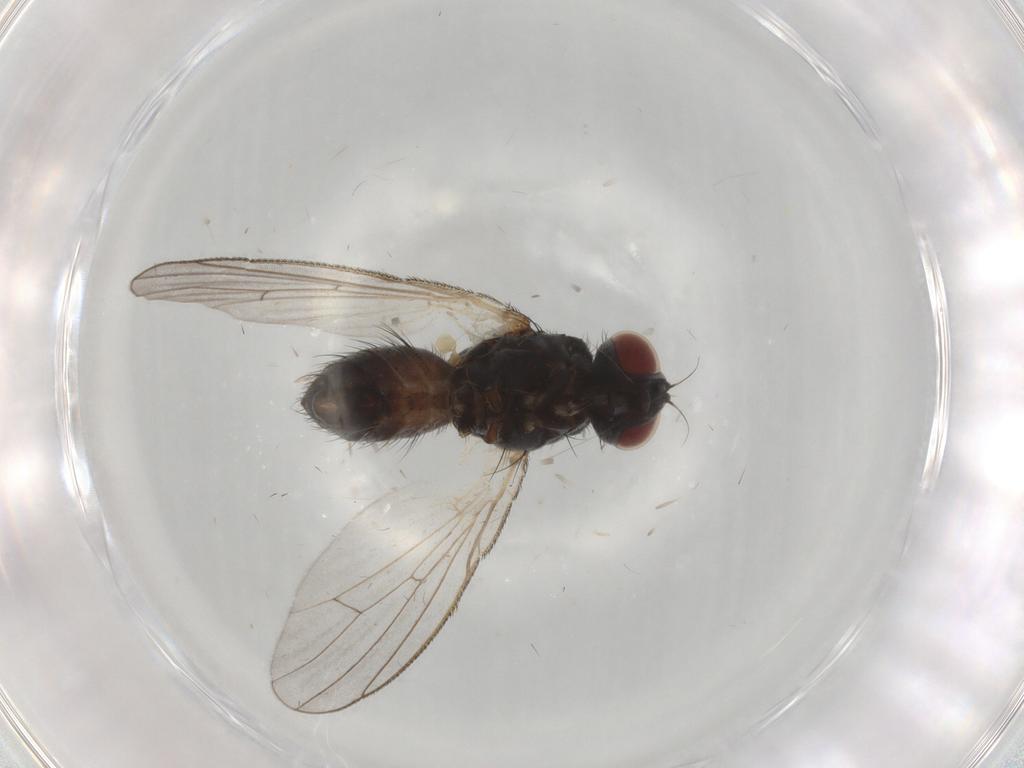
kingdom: Animalia
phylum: Arthropoda
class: Insecta
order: Diptera
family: Muscidae
